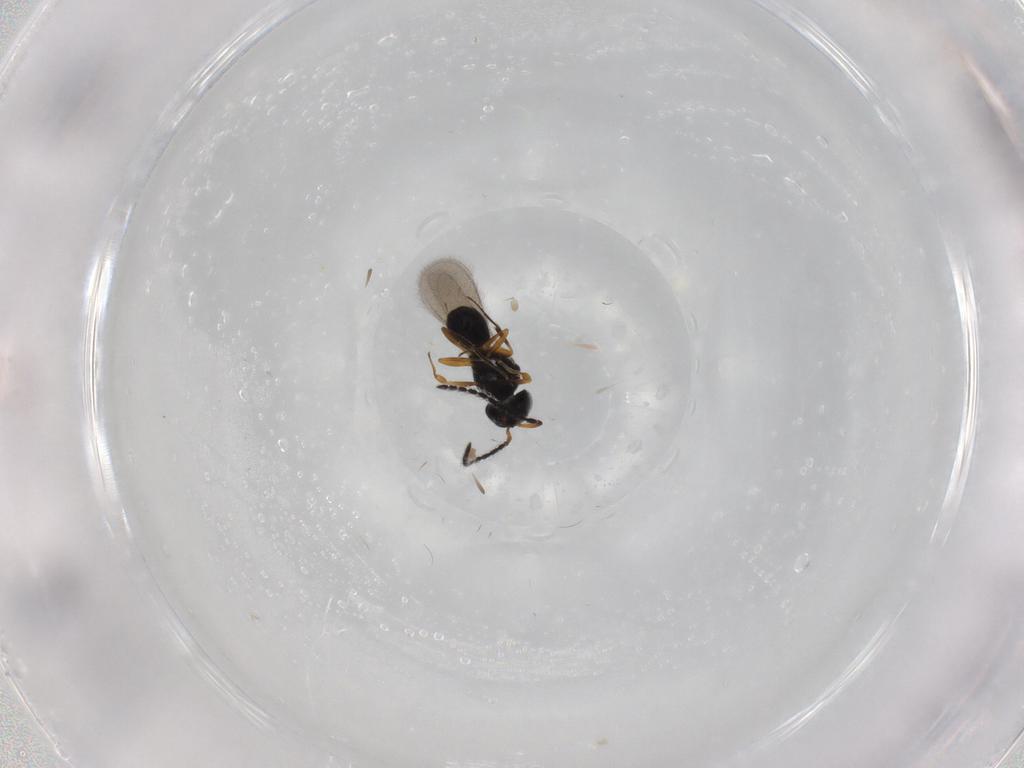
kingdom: Animalia
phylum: Arthropoda
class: Insecta
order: Hymenoptera
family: Scelionidae
